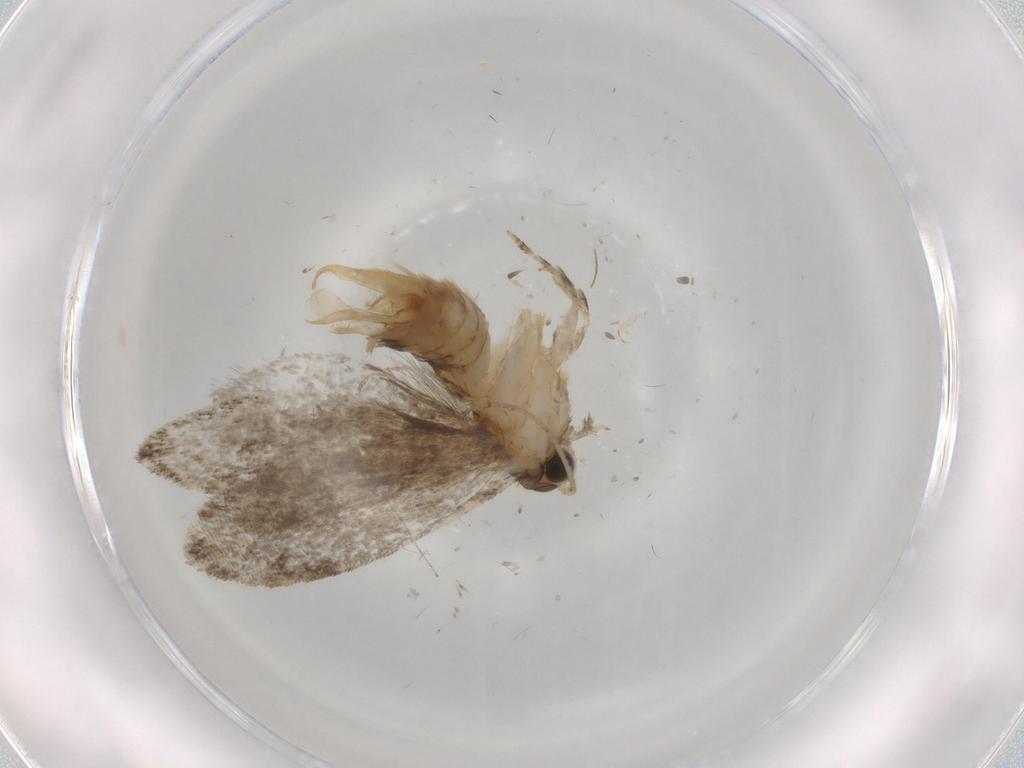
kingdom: Animalia
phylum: Arthropoda
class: Insecta
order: Lepidoptera
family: Tineidae
